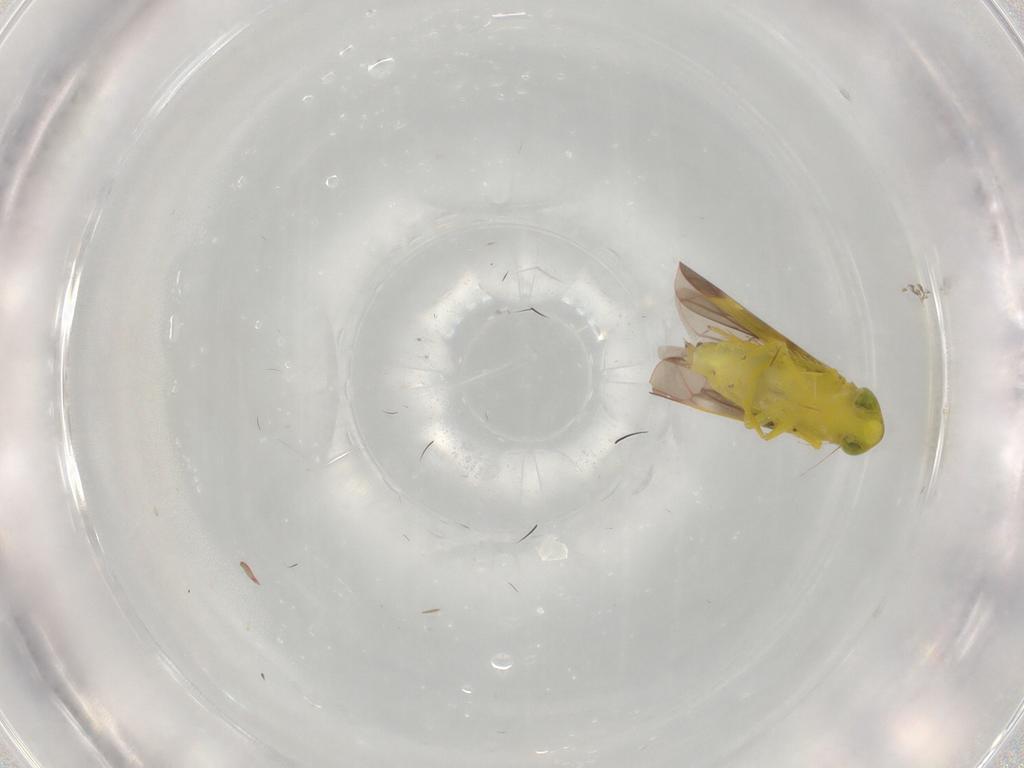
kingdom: Animalia
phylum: Arthropoda
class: Insecta
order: Hemiptera
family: Cicadellidae
